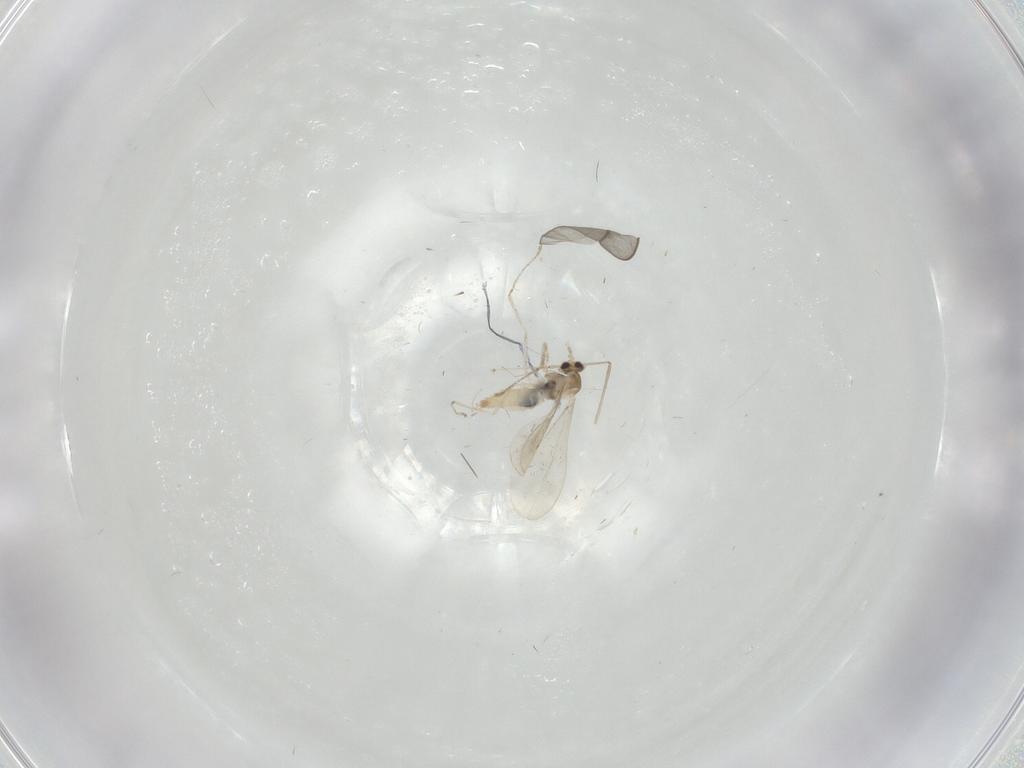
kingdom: Animalia
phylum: Arthropoda
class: Insecta
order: Diptera
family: Cecidomyiidae
